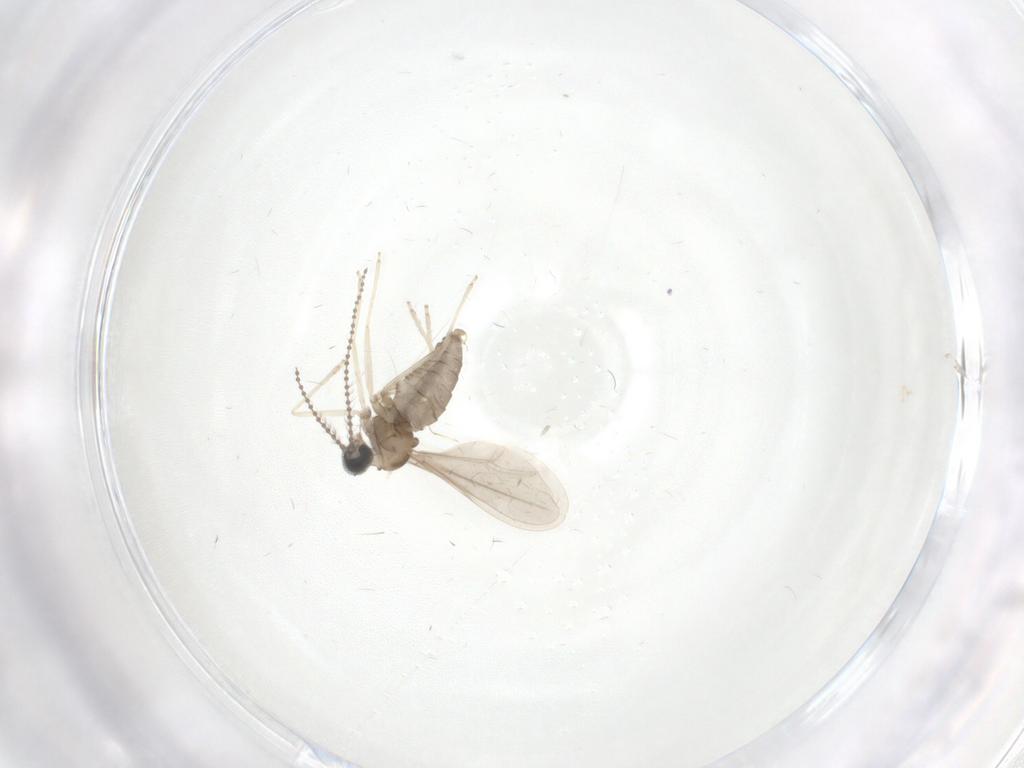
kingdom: Animalia
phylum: Arthropoda
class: Insecta
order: Diptera
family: Cecidomyiidae
